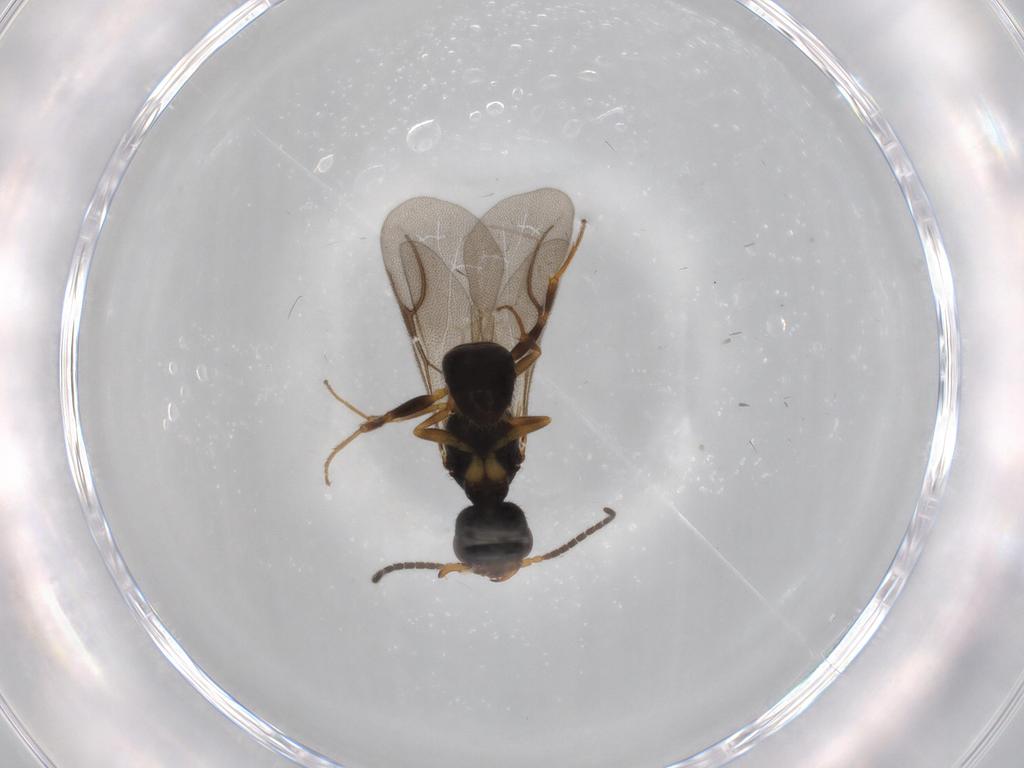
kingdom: Animalia
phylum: Arthropoda
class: Insecta
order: Hymenoptera
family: Bethylidae
